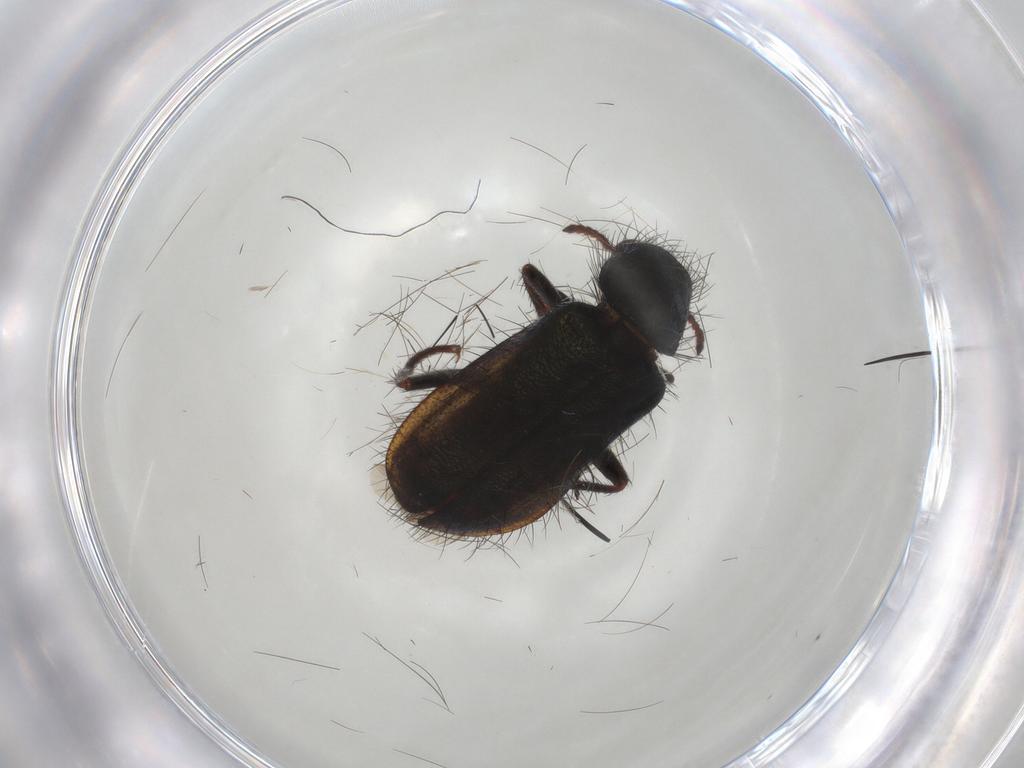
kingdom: Animalia
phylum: Arthropoda
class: Insecta
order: Coleoptera
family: Melyridae
